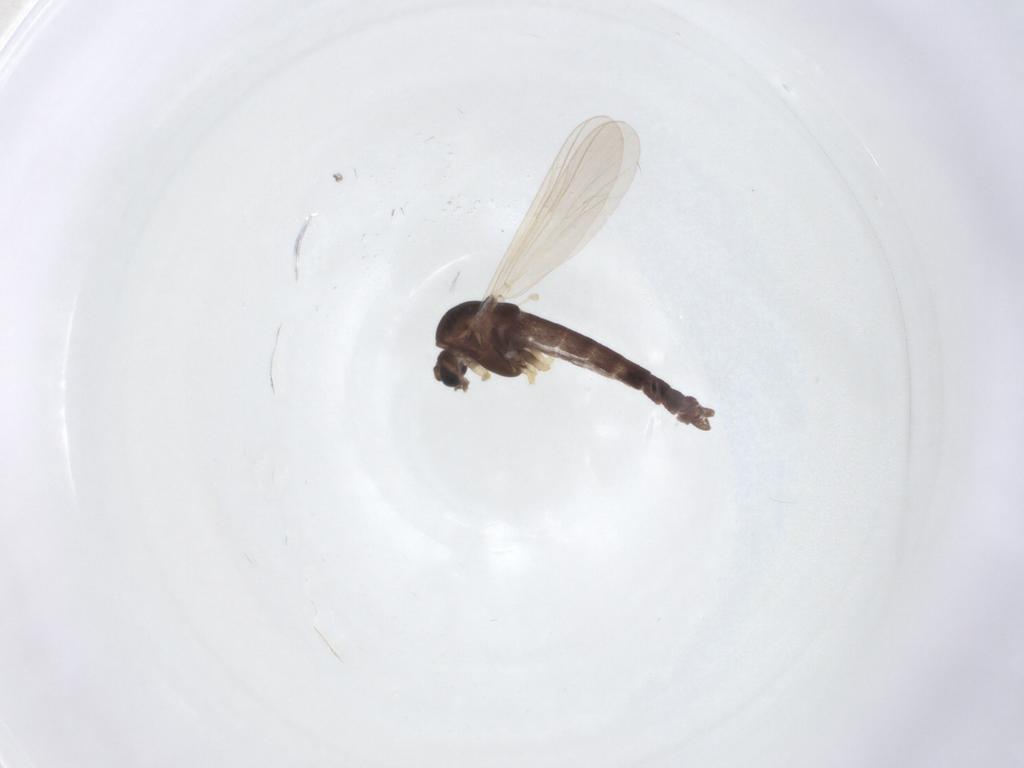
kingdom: Animalia
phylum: Arthropoda
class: Insecta
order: Diptera
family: Chironomidae
